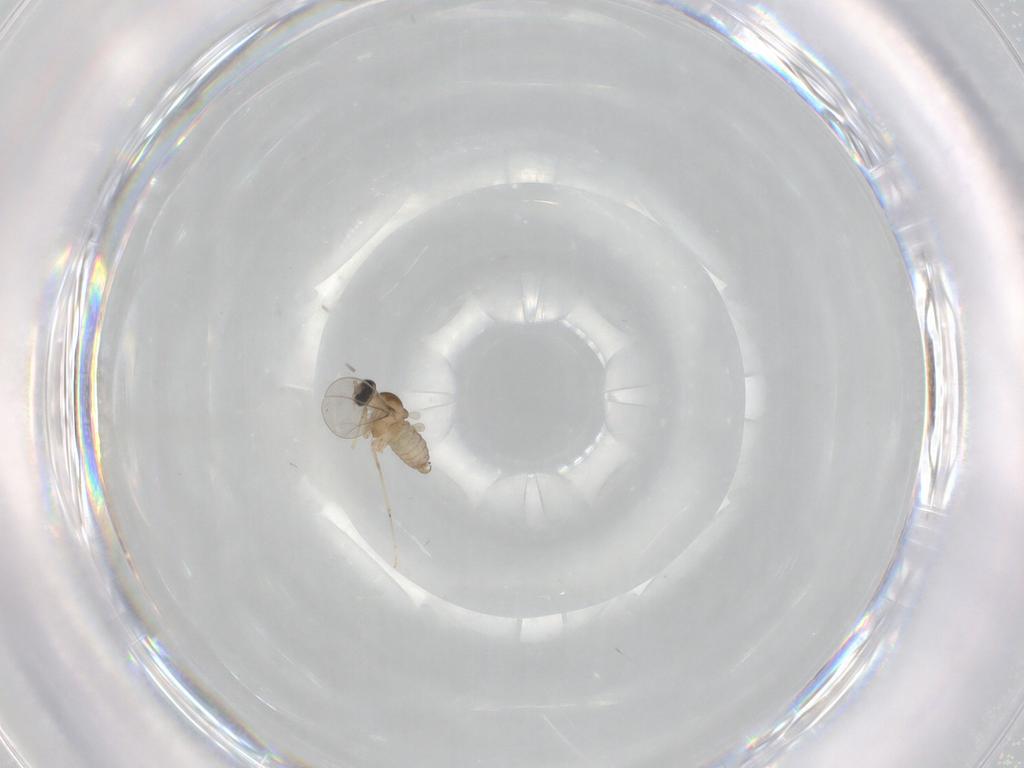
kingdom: Animalia
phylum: Arthropoda
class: Insecta
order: Diptera
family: Cecidomyiidae
